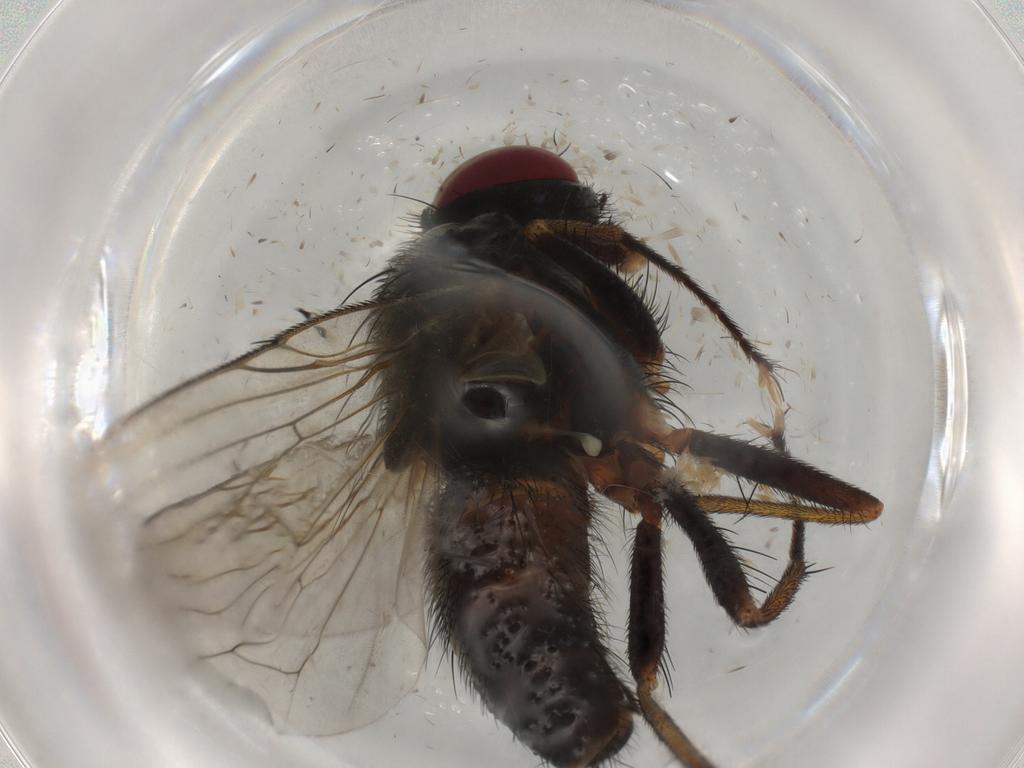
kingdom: Animalia
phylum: Arthropoda
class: Insecta
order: Diptera
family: Muscidae
